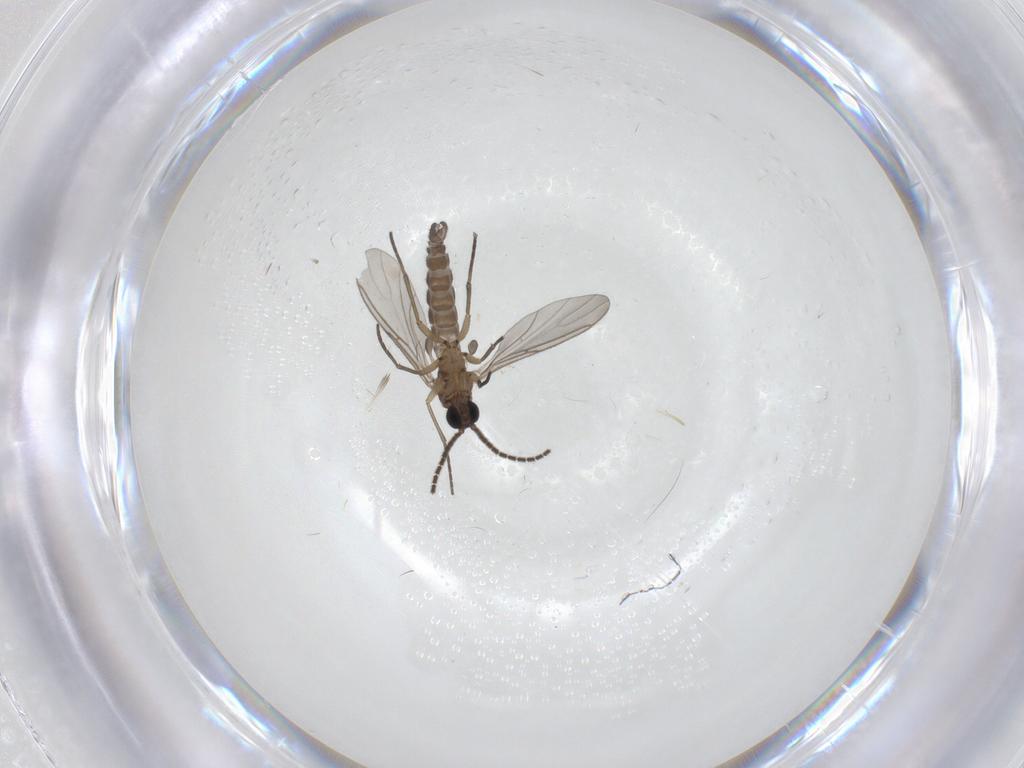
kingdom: Animalia
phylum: Arthropoda
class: Insecta
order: Diptera
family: Sciaridae
